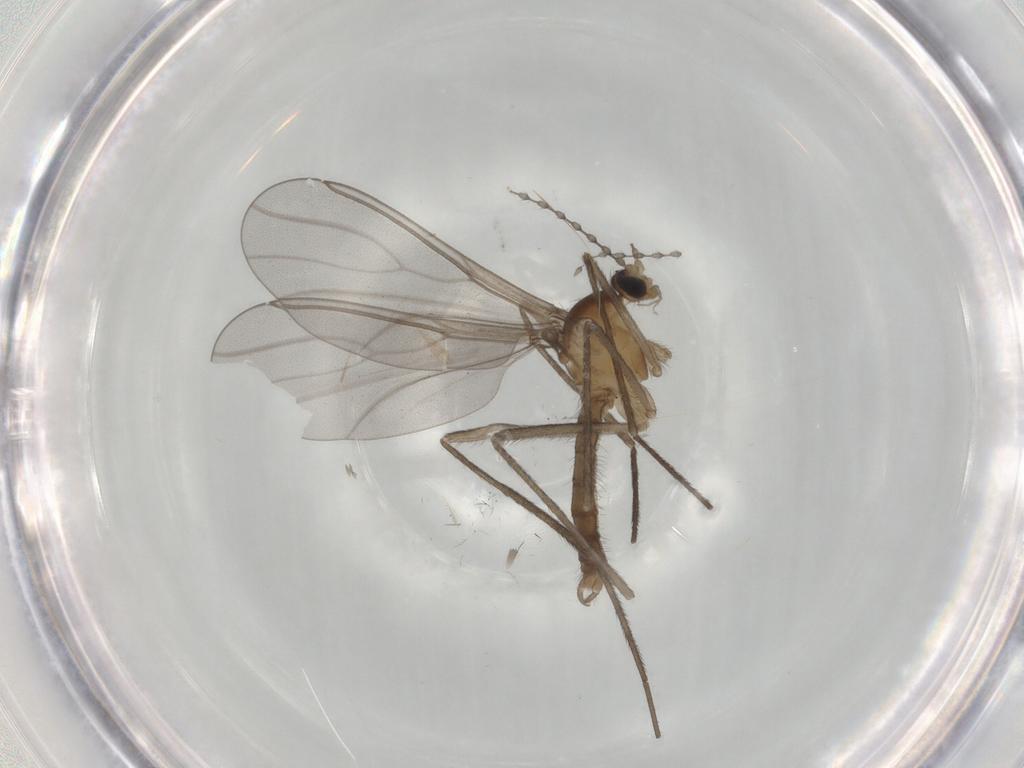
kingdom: Animalia
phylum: Arthropoda
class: Insecta
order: Diptera
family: Cecidomyiidae
